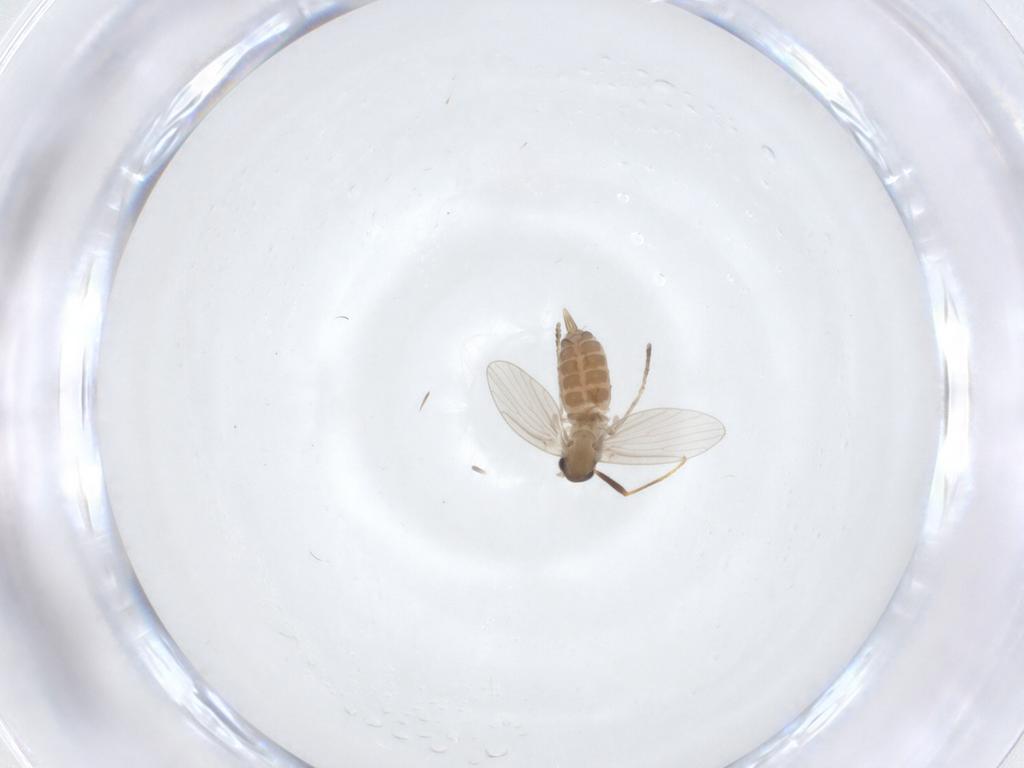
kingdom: Animalia
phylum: Arthropoda
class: Insecta
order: Diptera
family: Psychodidae
